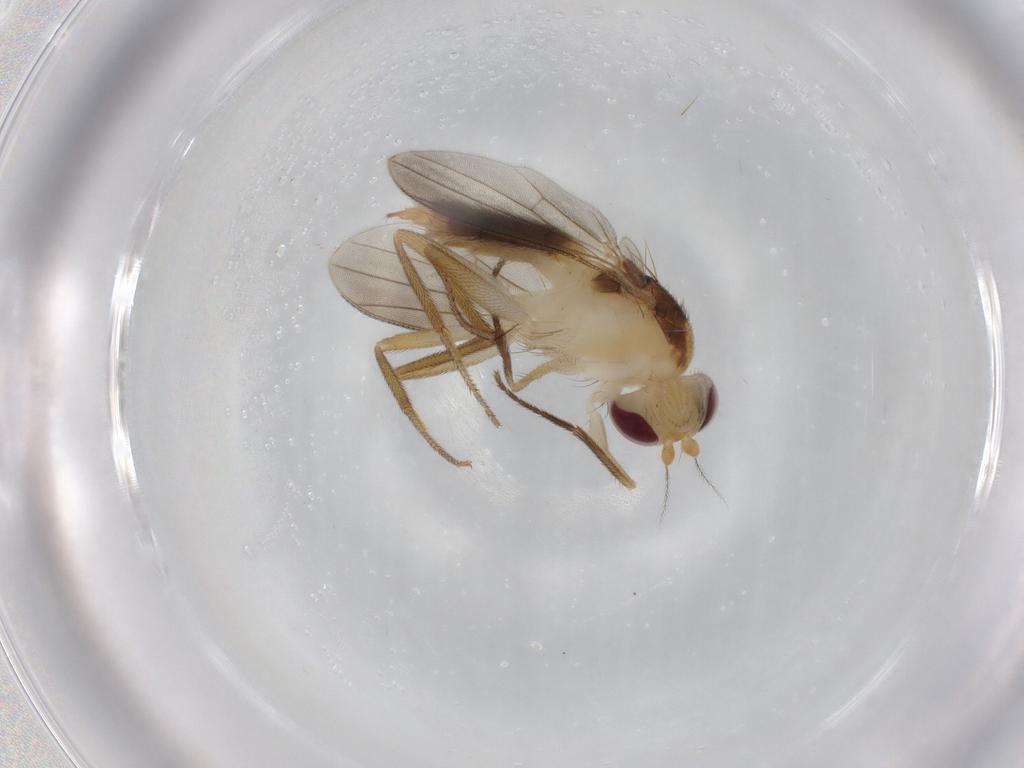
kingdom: Animalia
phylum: Arthropoda
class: Insecta
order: Diptera
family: Agromyzidae
